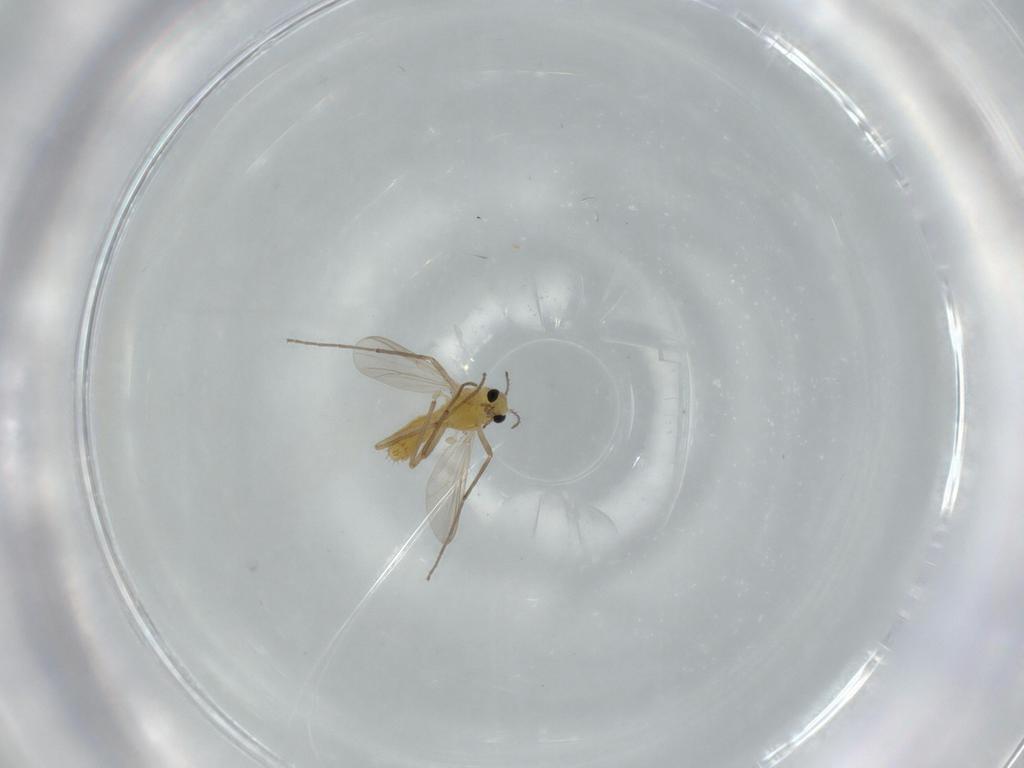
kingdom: Animalia
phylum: Arthropoda
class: Insecta
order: Diptera
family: Chironomidae
